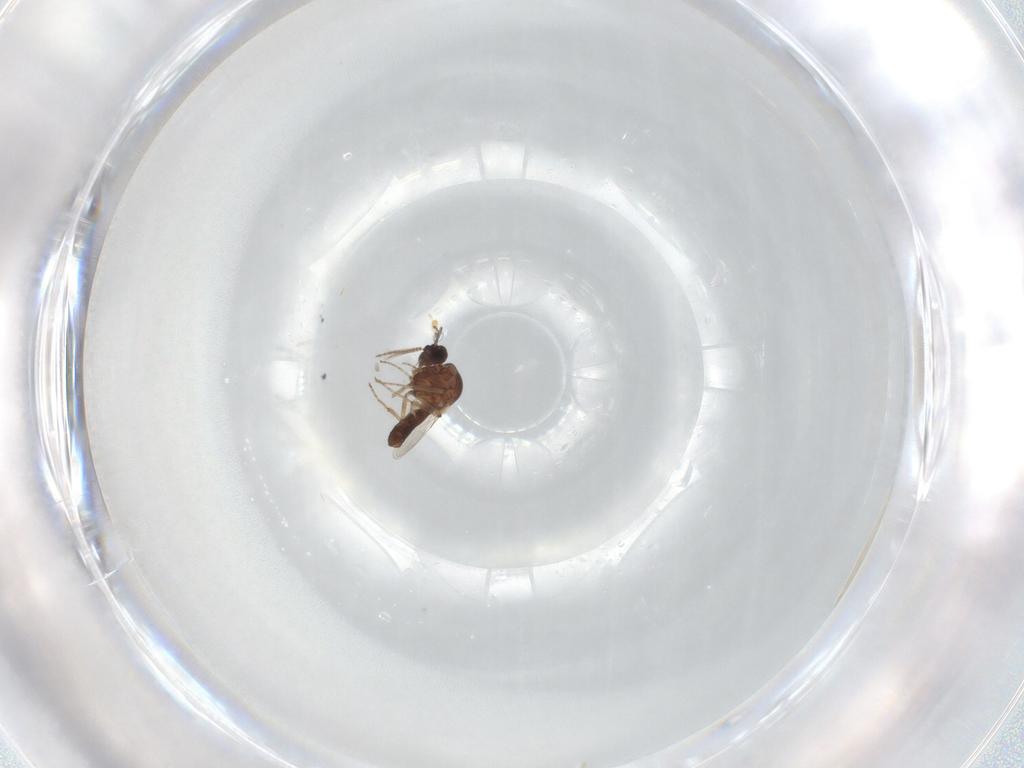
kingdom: Animalia
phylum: Arthropoda
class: Insecta
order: Diptera
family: Ceratopogonidae
